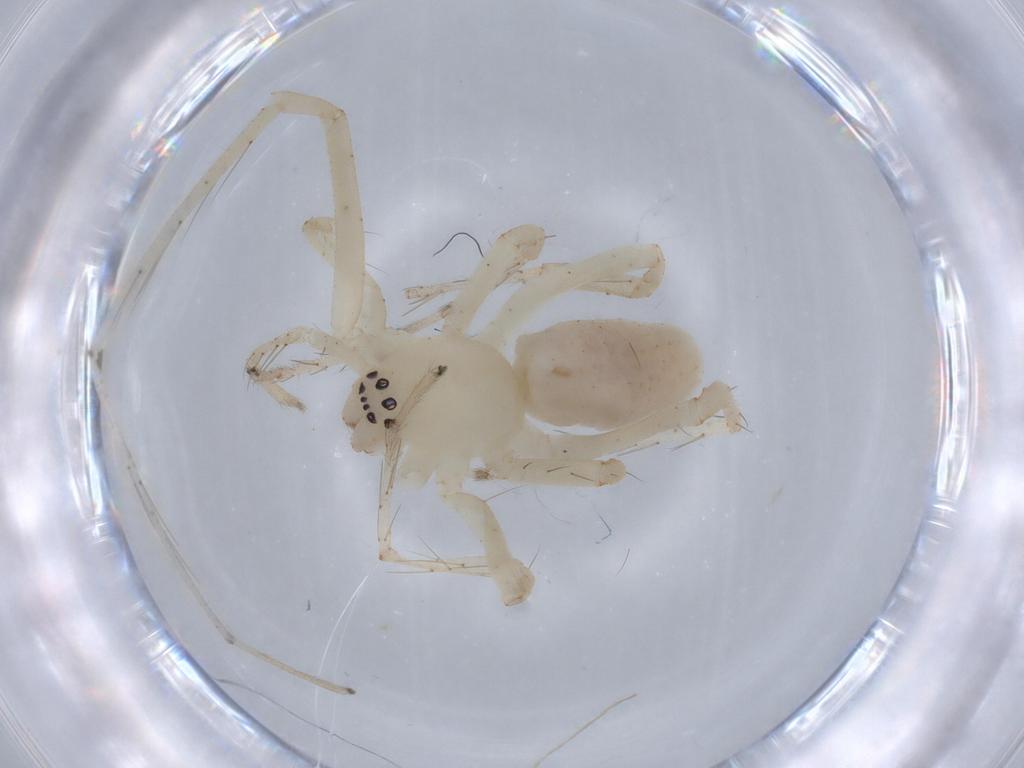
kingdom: Animalia
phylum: Arthropoda
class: Arachnida
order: Araneae
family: Anyphaenidae
